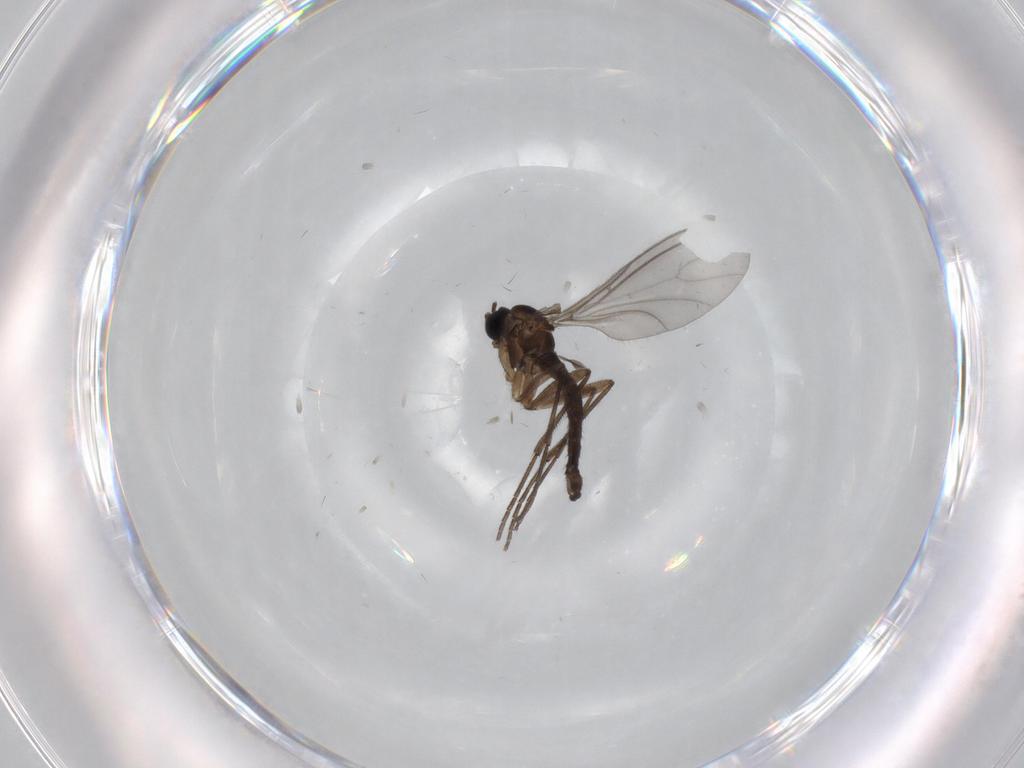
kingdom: Animalia
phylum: Arthropoda
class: Insecta
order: Diptera
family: Sciaridae
